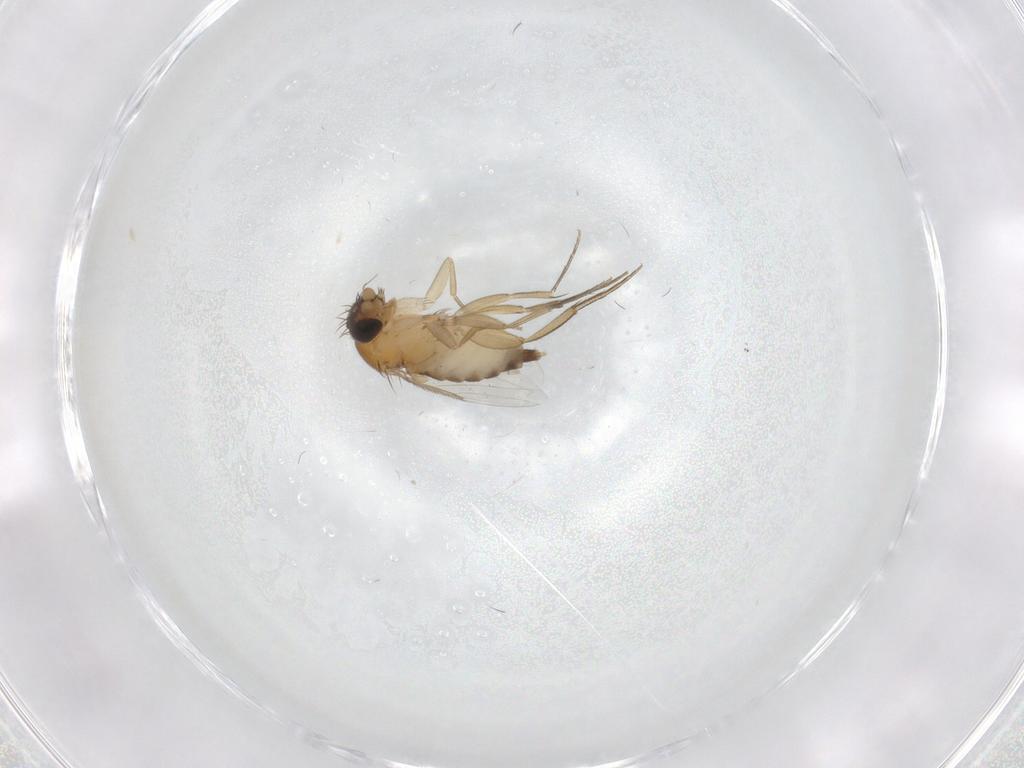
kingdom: Animalia
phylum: Arthropoda
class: Insecta
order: Diptera
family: Phoridae
